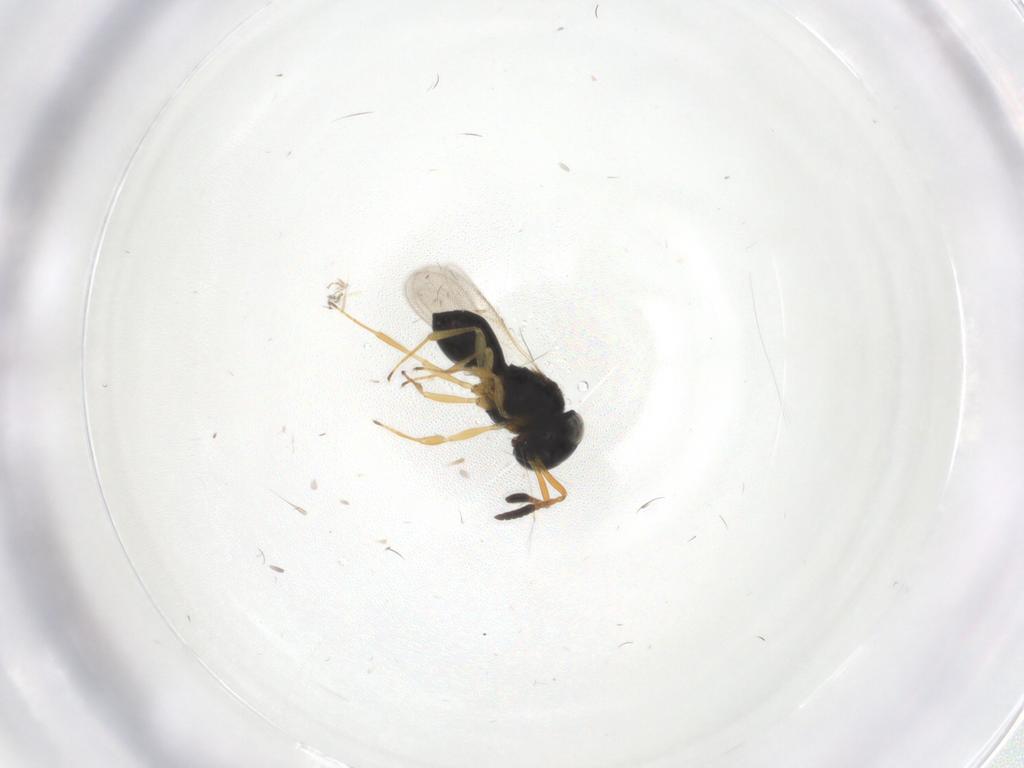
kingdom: Animalia
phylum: Arthropoda
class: Insecta
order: Hymenoptera
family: Scelionidae
